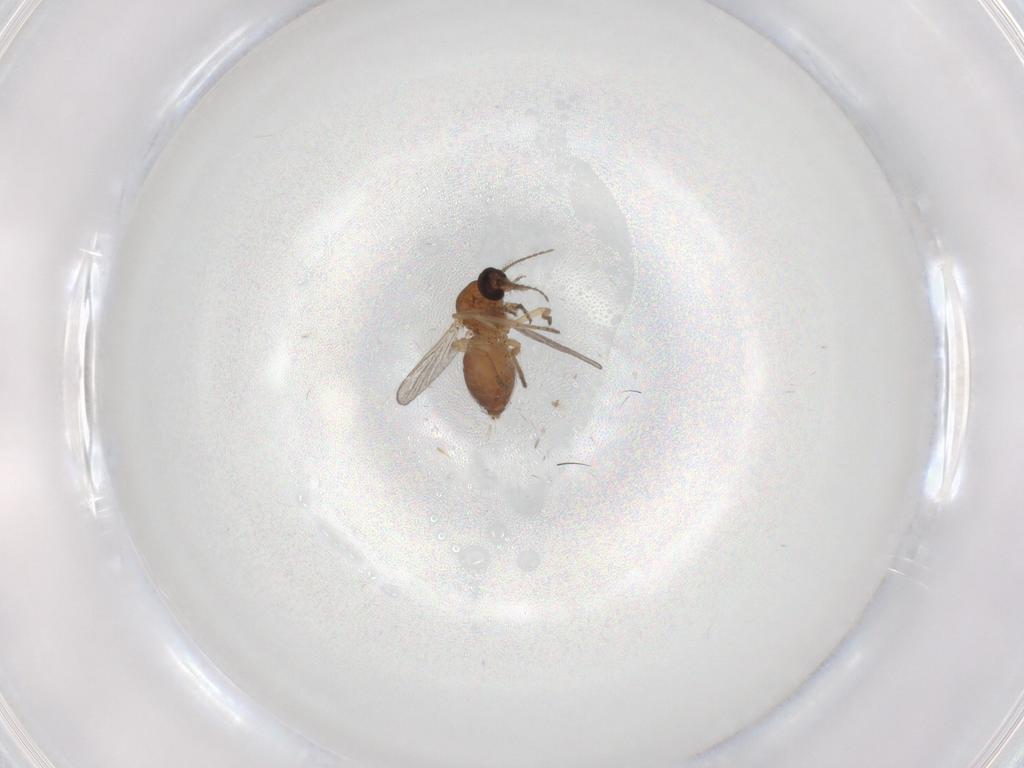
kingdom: Animalia
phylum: Arthropoda
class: Insecta
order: Diptera
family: Ceratopogonidae
